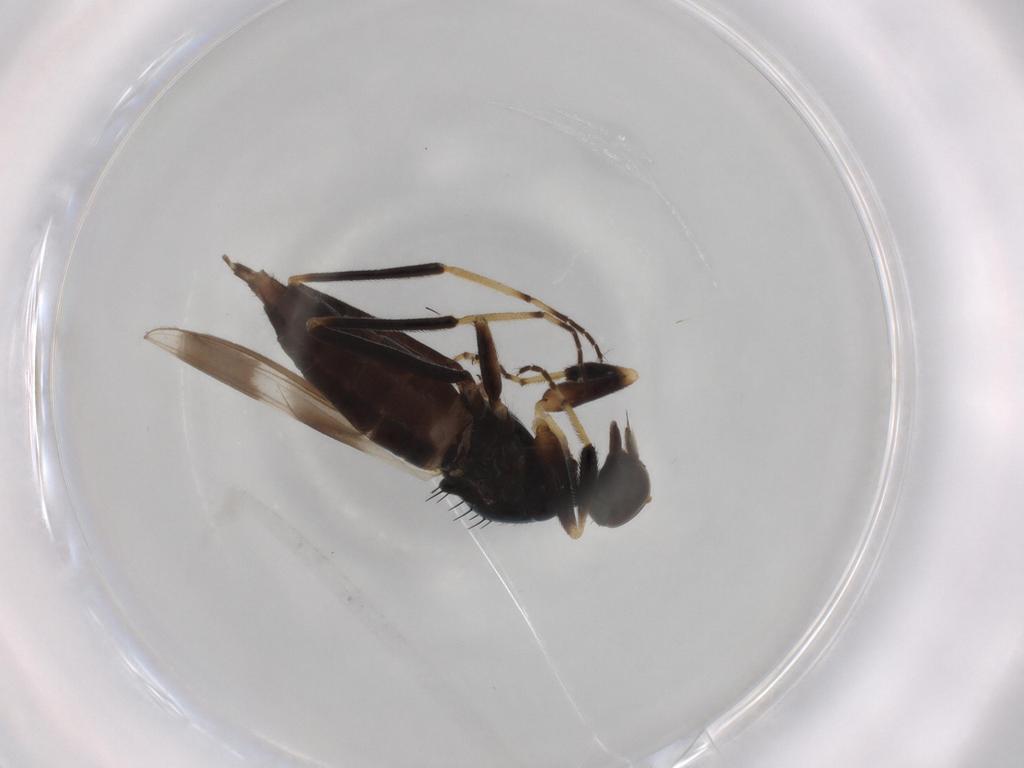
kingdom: Animalia
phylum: Arthropoda
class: Insecta
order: Diptera
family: Hybotidae
